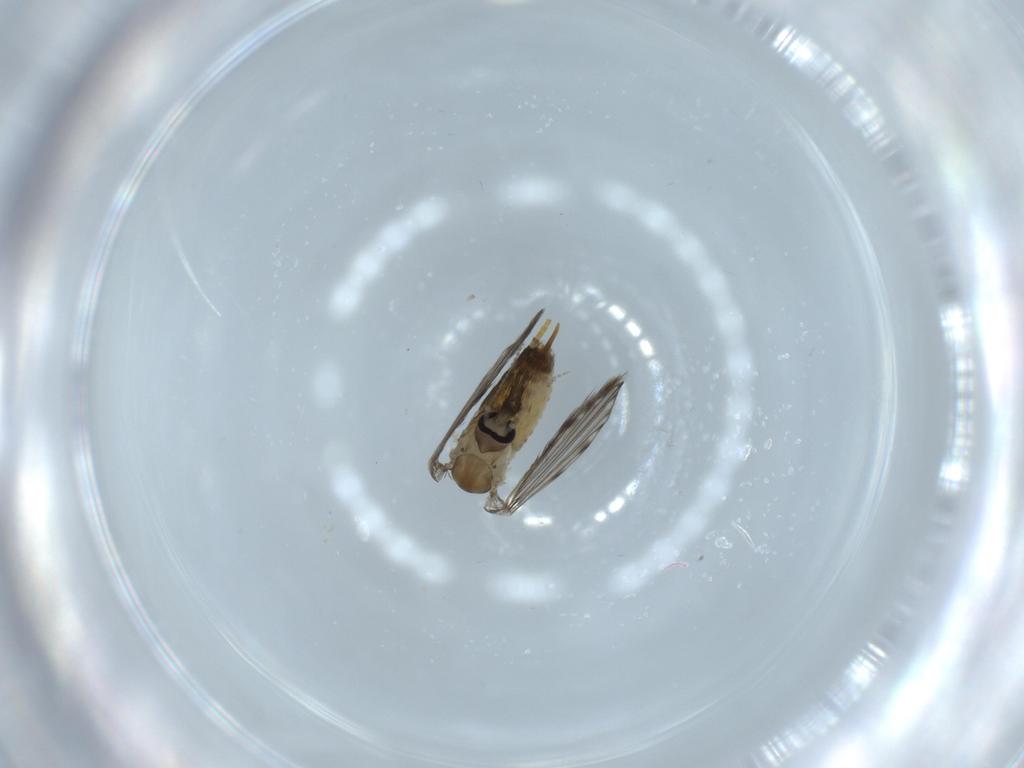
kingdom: Animalia
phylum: Arthropoda
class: Insecta
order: Diptera
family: Psychodidae
